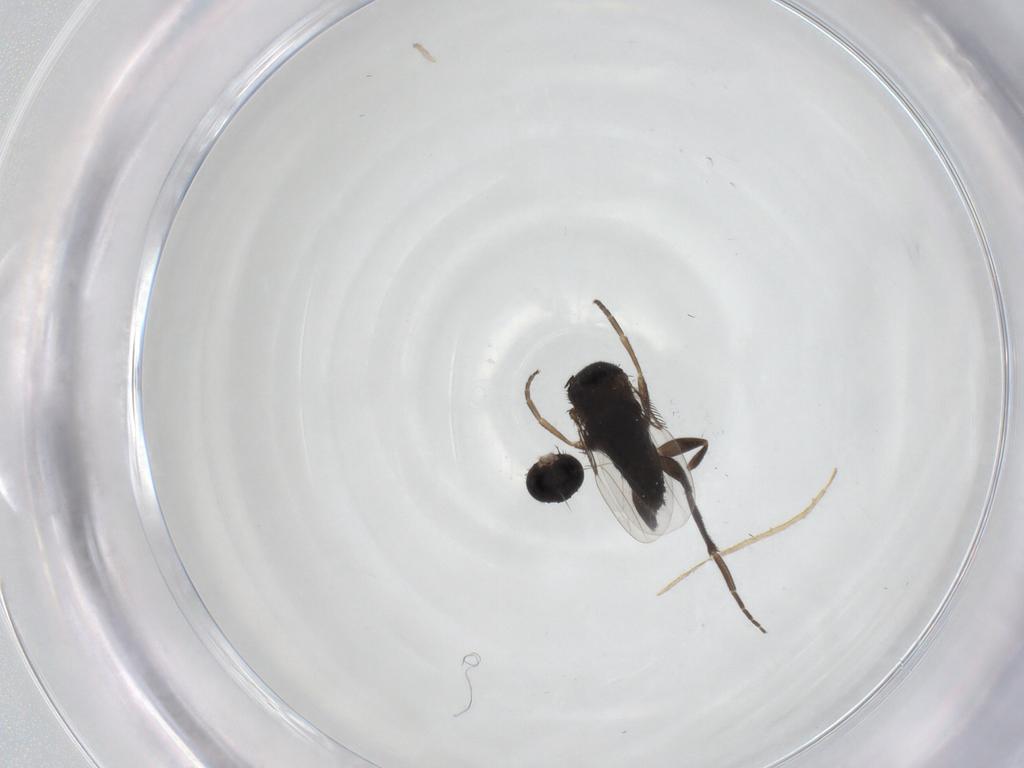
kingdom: Animalia
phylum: Arthropoda
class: Insecta
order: Diptera
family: Phoridae
